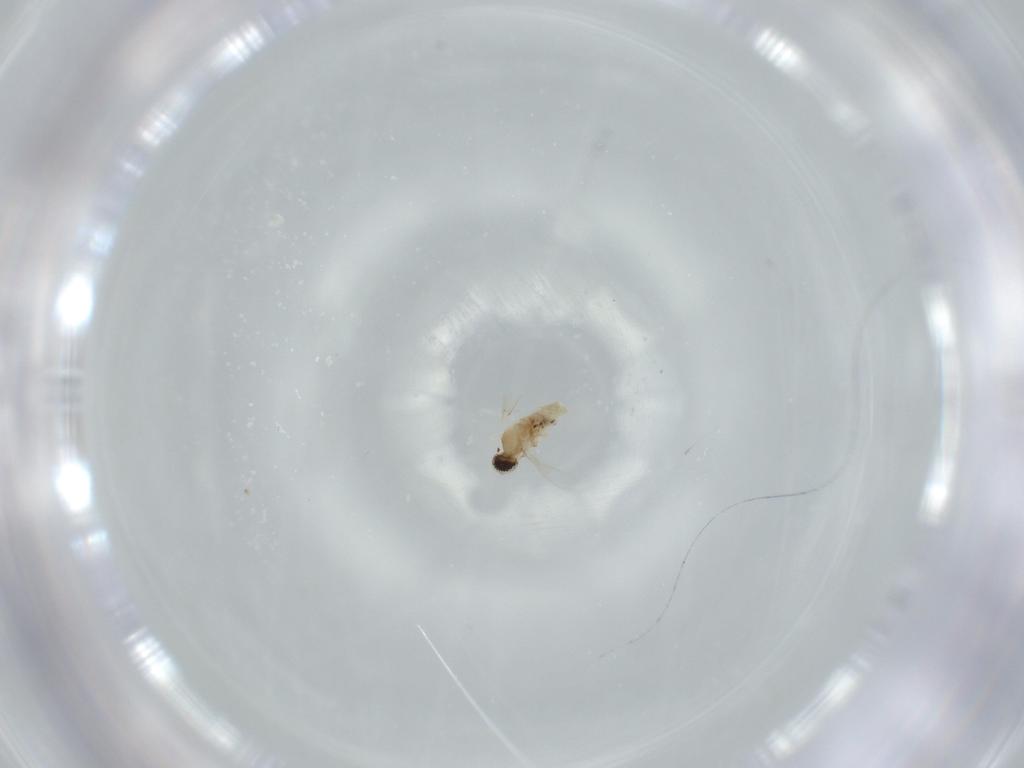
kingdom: Animalia
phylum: Arthropoda
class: Insecta
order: Diptera
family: Cecidomyiidae
